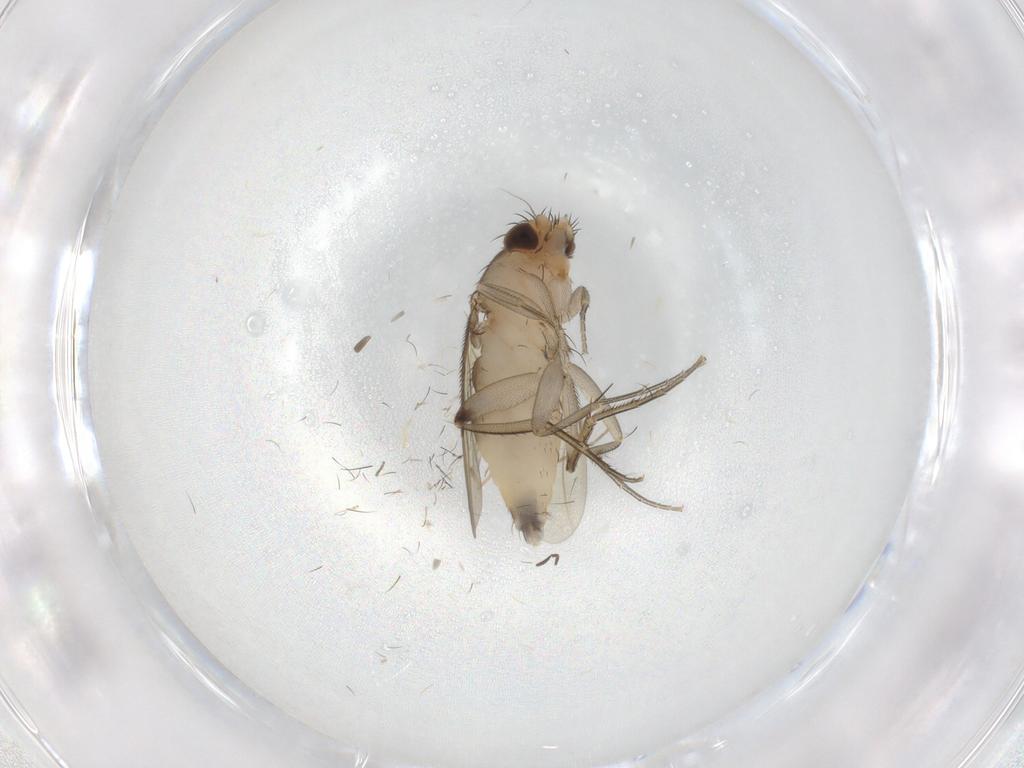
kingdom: Animalia
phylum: Arthropoda
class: Insecta
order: Diptera
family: Cecidomyiidae
